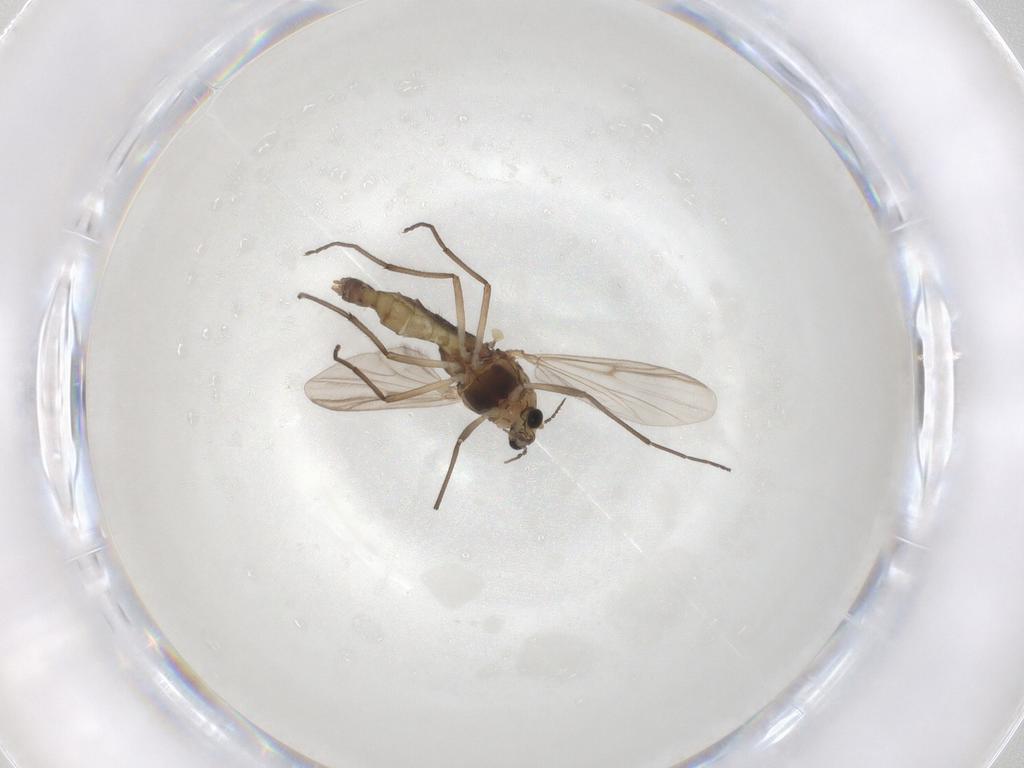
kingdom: Animalia
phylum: Arthropoda
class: Insecta
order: Diptera
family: Chironomidae
